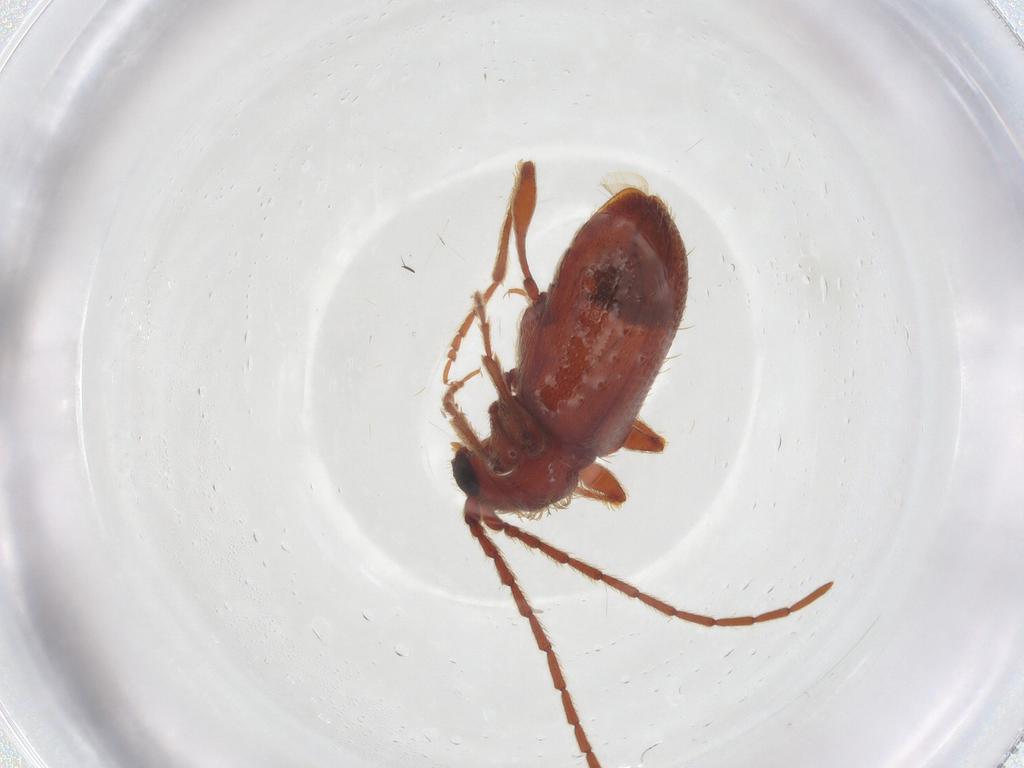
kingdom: Animalia
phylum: Arthropoda
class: Insecta
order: Coleoptera
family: Ptinidae
